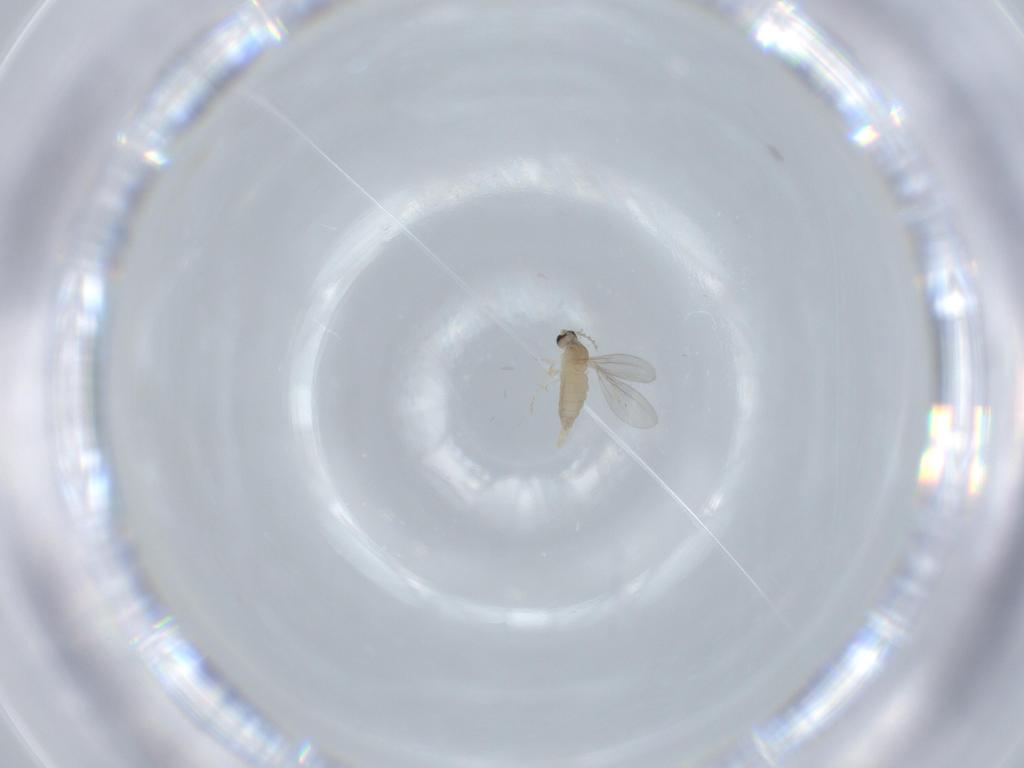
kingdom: Animalia
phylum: Arthropoda
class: Insecta
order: Diptera
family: Sciaridae
